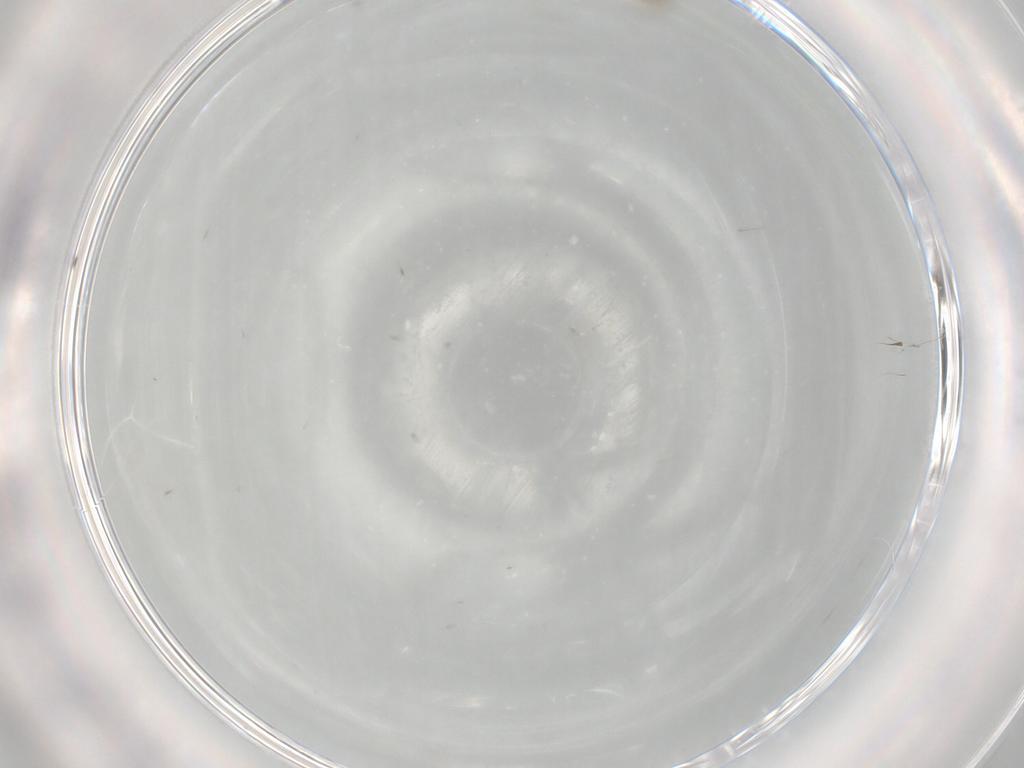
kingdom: Animalia
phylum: Arthropoda
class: Insecta
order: Diptera
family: Cecidomyiidae
